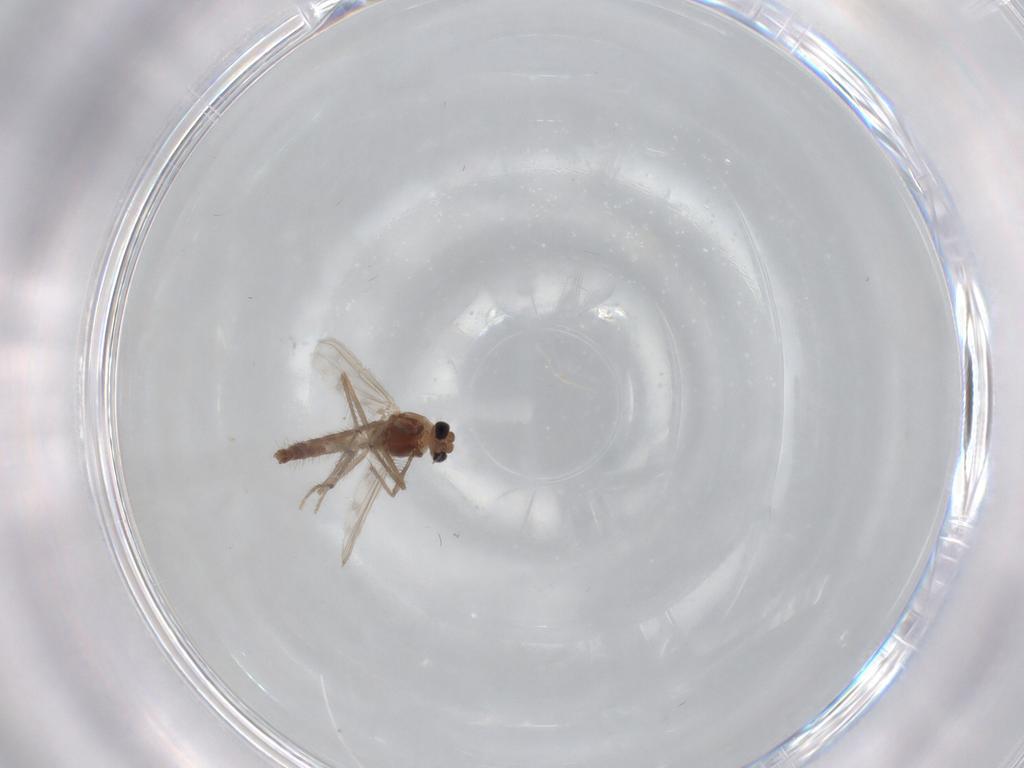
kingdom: Animalia
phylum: Arthropoda
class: Insecta
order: Diptera
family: Chironomidae
